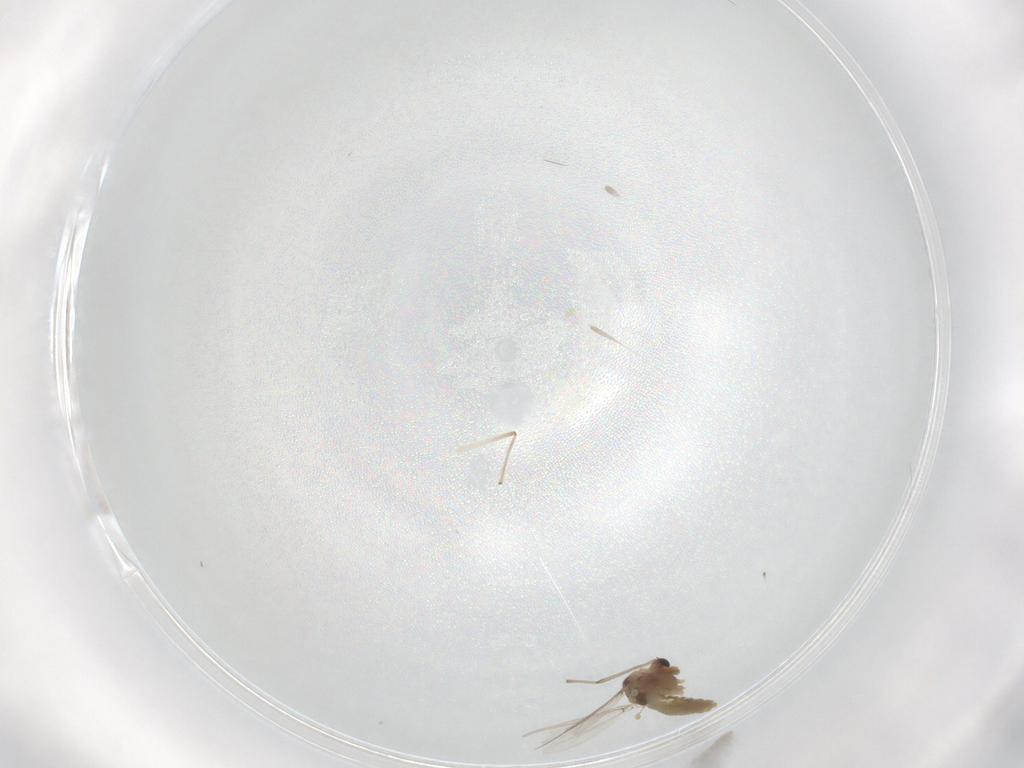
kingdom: Animalia
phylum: Arthropoda
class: Insecta
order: Diptera
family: Chironomidae
